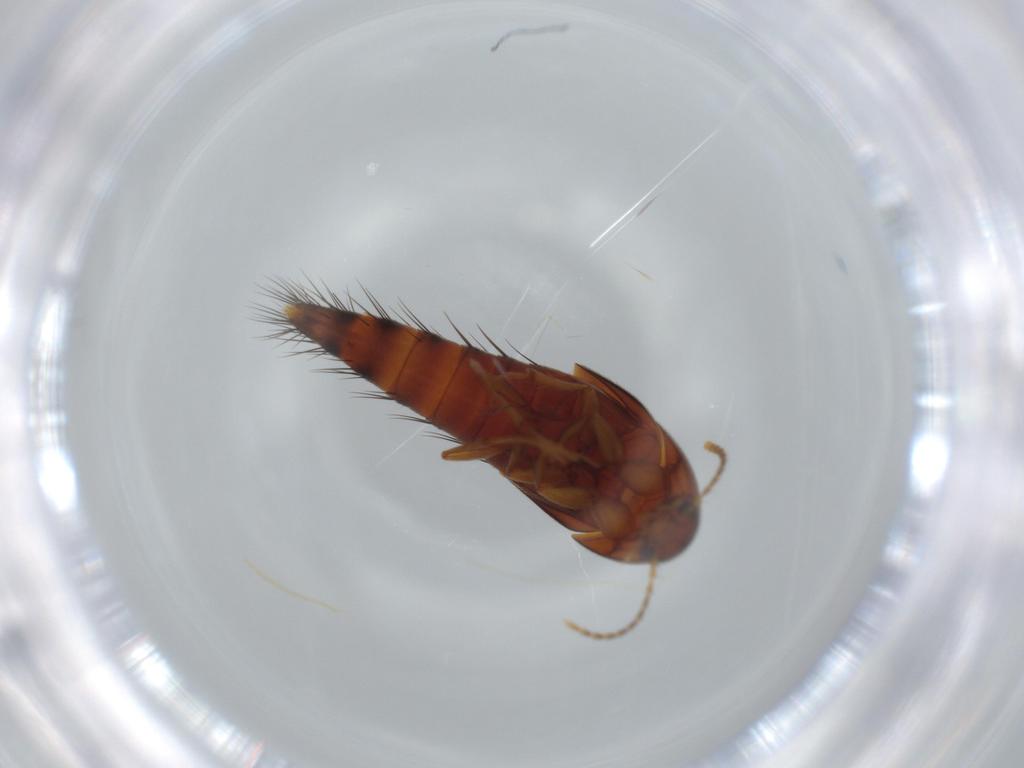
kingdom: Animalia
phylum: Arthropoda
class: Insecta
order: Coleoptera
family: Staphylinidae
